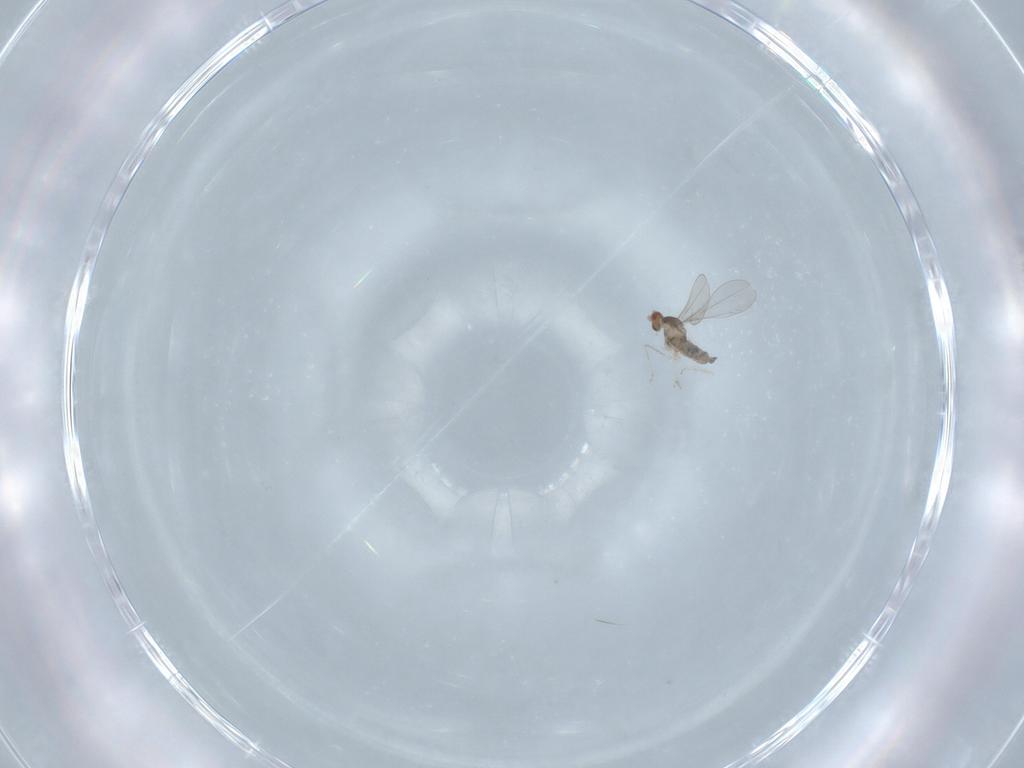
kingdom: Animalia
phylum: Arthropoda
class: Insecta
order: Diptera
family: Cecidomyiidae
